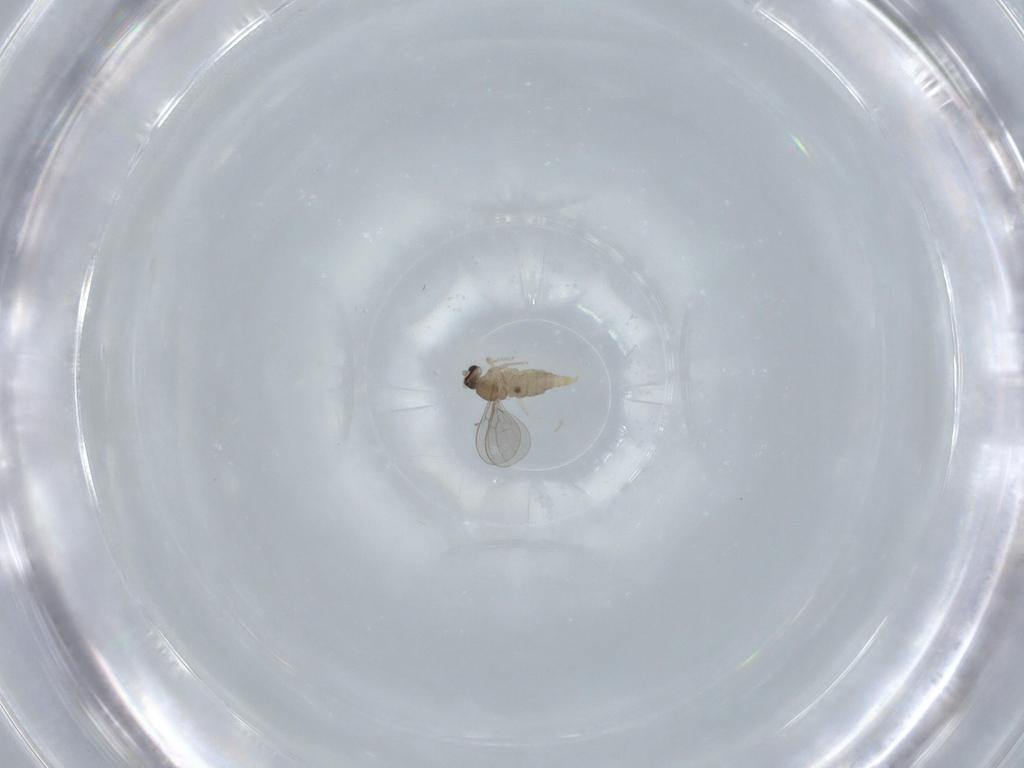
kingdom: Animalia
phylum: Arthropoda
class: Insecta
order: Diptera
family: Cecidomyiidae
